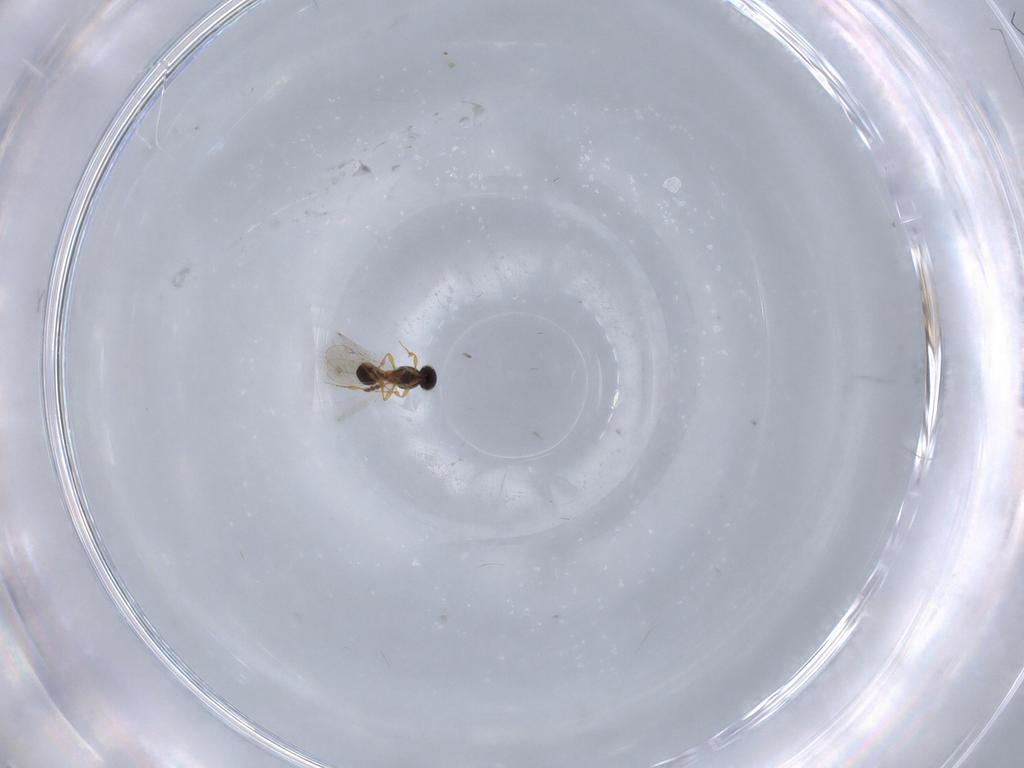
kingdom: Animalia
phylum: Arthropoda
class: Insecta
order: Hymenoptera
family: Platygastridae
